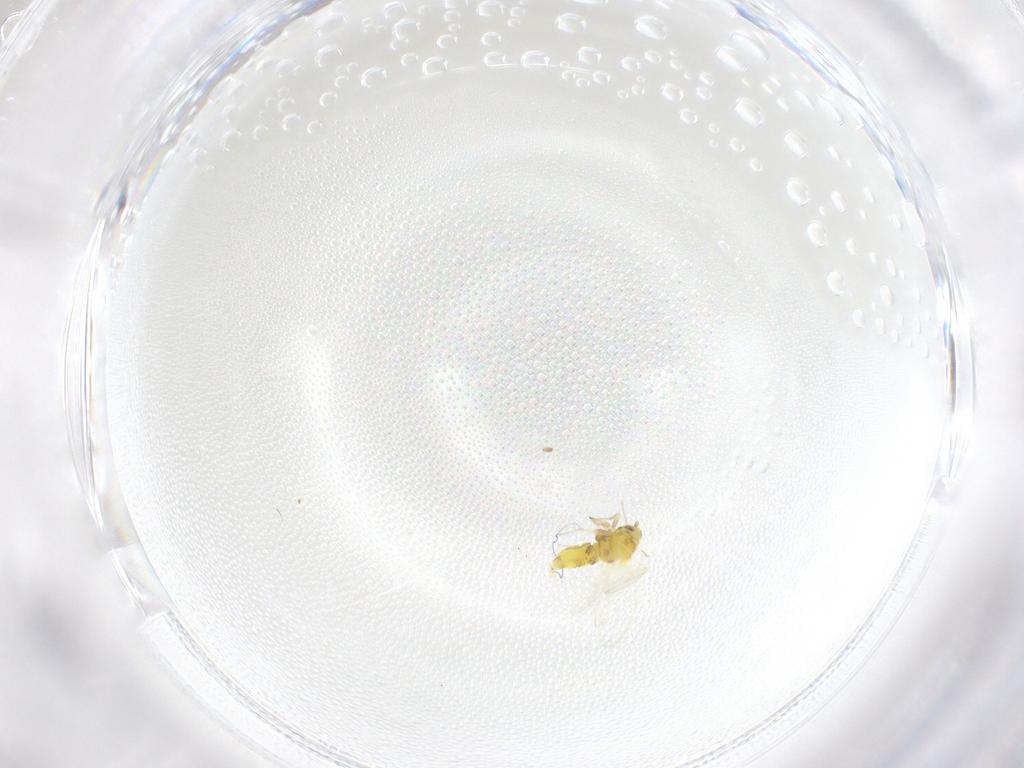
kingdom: Animalia
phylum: Arthropoda
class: Insecta
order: Hemiptera
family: Aleyrodidae
